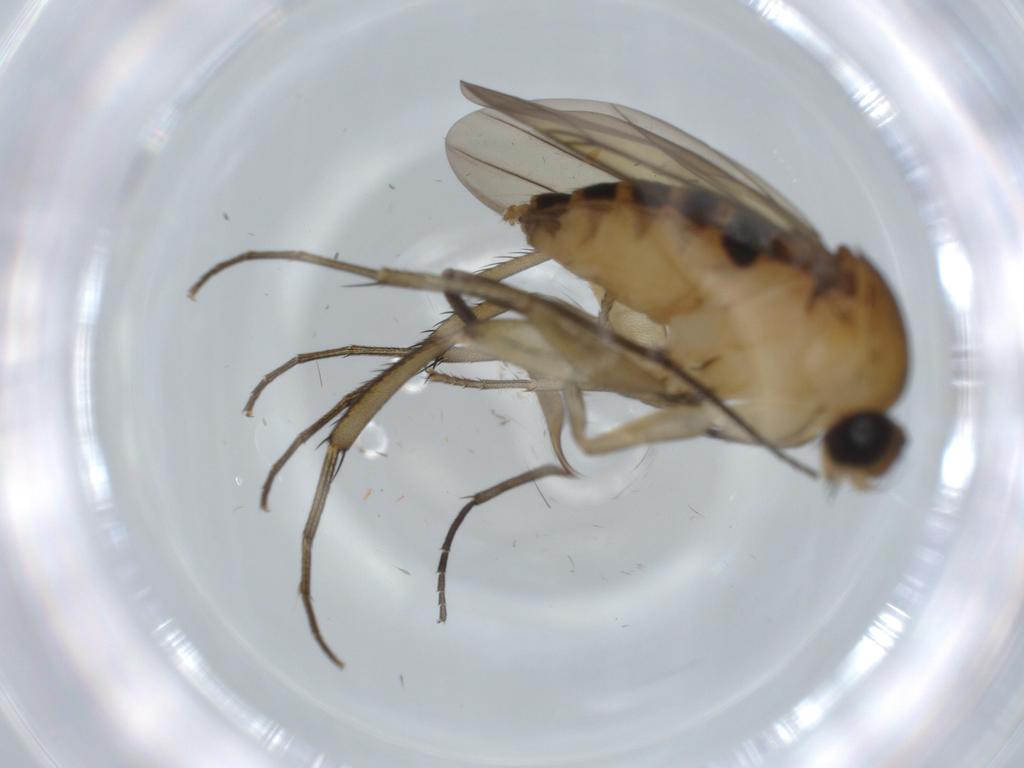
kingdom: Animalia
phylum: Arthropoda
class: Insecta
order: Diptera
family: Sciaridae
